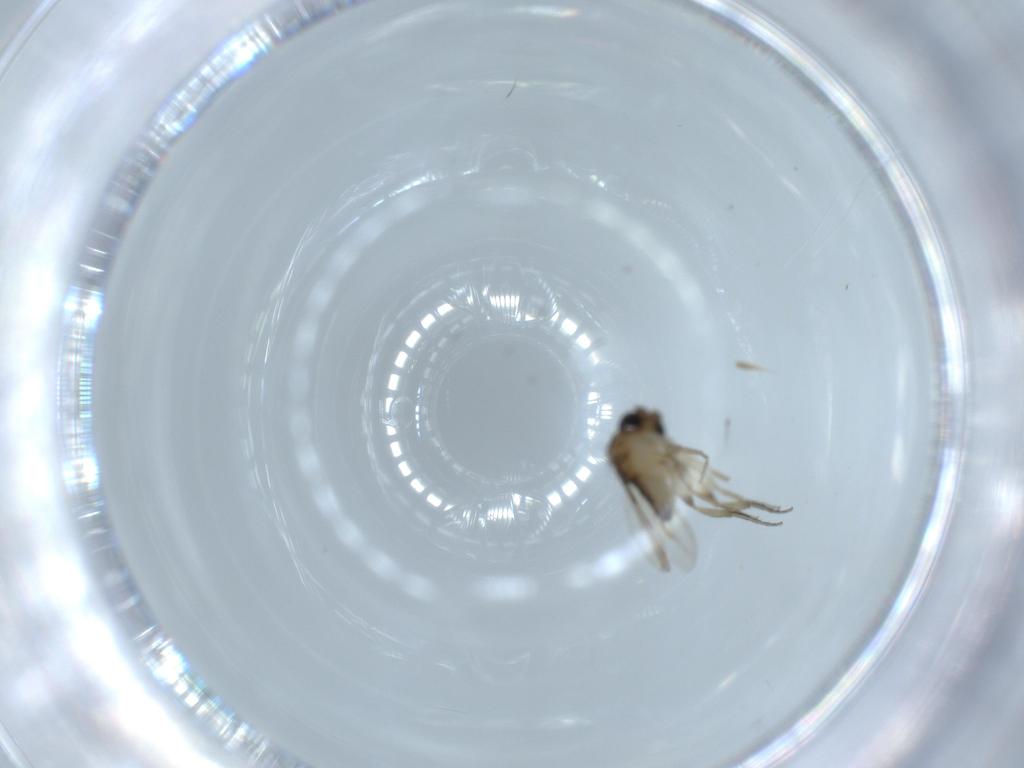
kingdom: Animalia
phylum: Arthropoda
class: Insecta
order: Diptera
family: Phoridae
